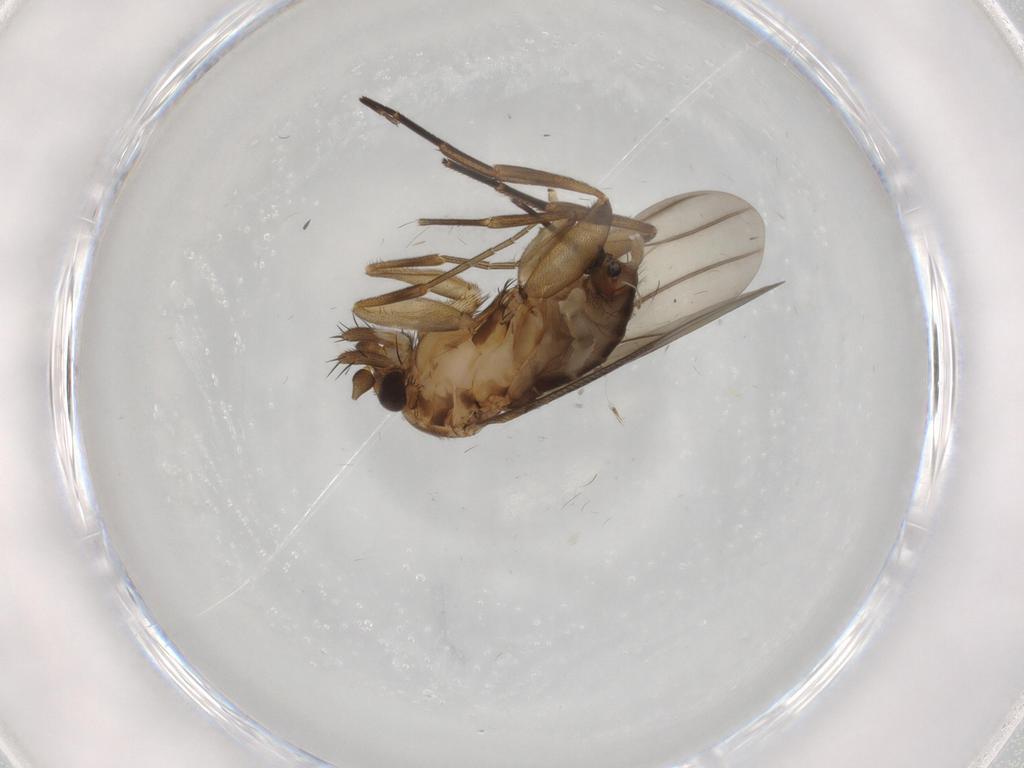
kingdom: Animalia
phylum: Arthropoda
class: Insecta
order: Diptera
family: Phoridae
